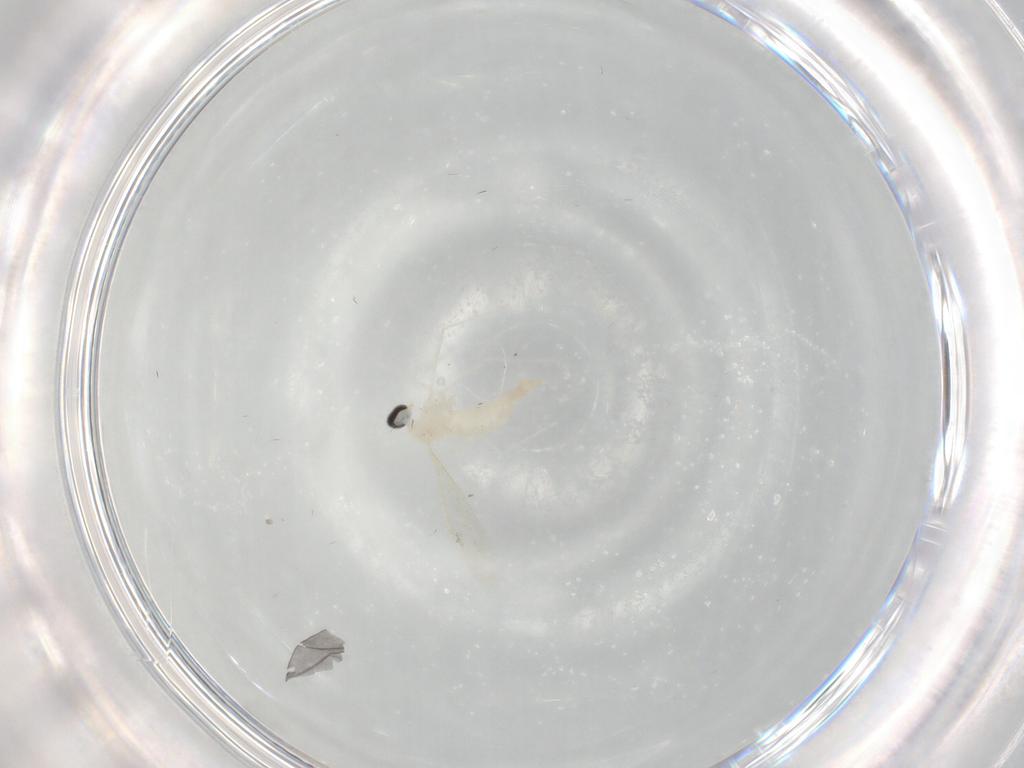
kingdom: Animalia
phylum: Arthropoda
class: Insecta
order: Diptera
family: Cecidomyiidae
